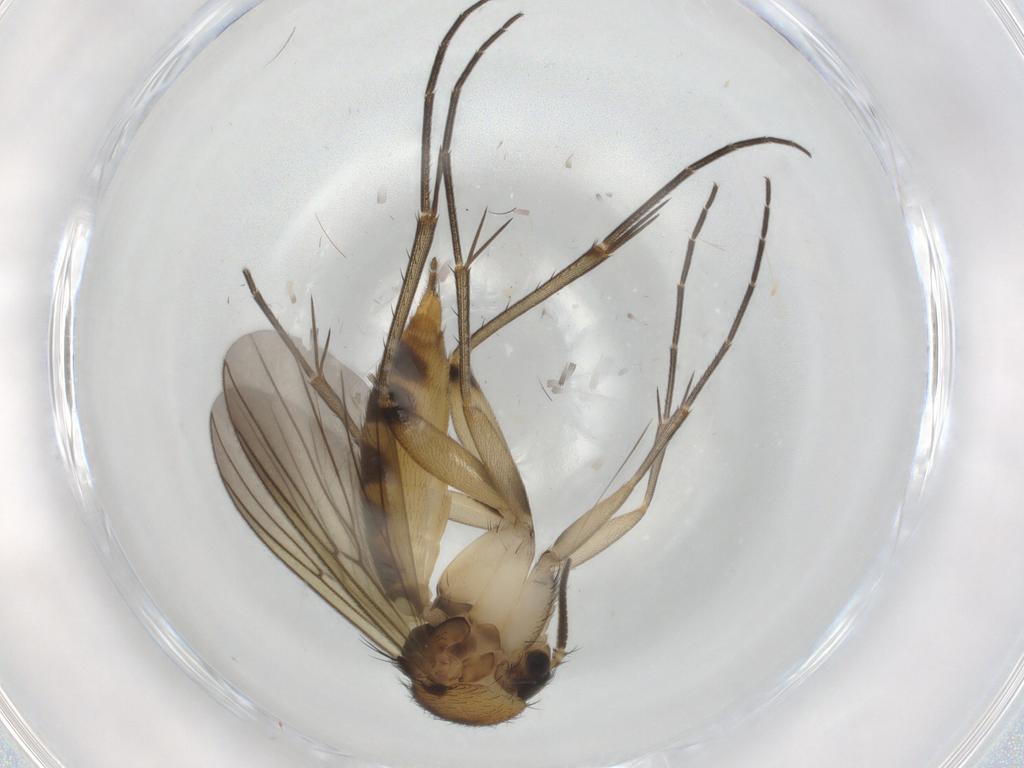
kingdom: Animalia
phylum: Arthropoda
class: Insecta
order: Diptera
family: Mycetophilidae
